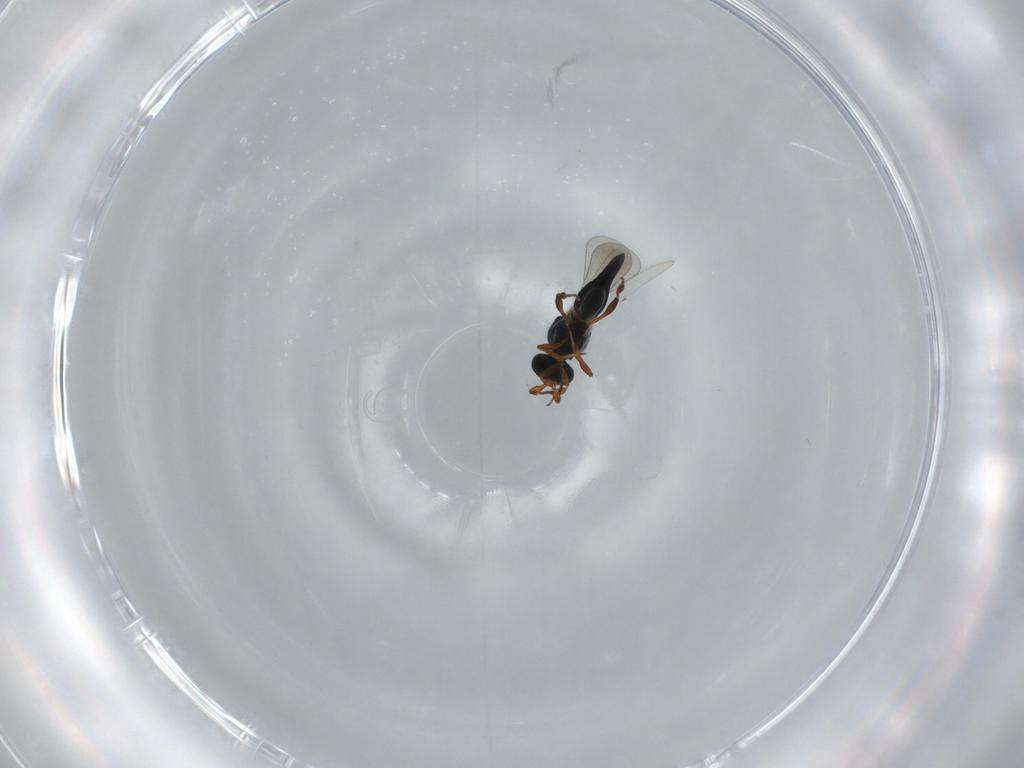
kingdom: Animalia
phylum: Arthropoda
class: Insecta
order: Hymenoptera
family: Platygastridae
